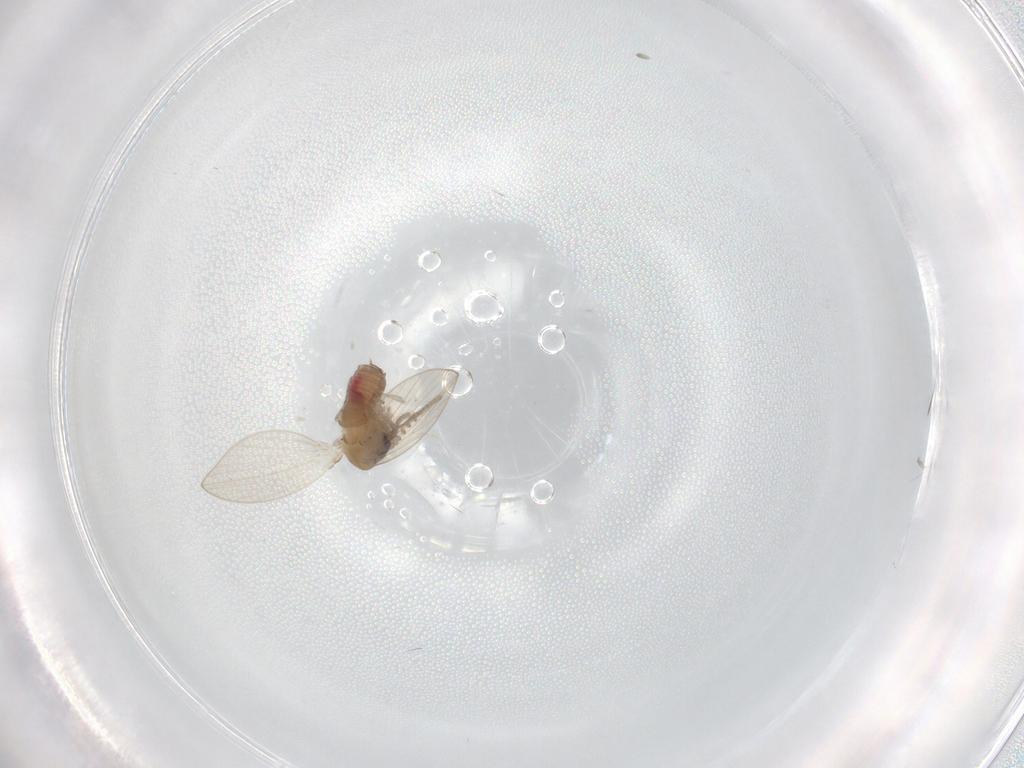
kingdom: Animalia
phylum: Arthropoda
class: Insecta
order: Diptera
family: Psychodidae
